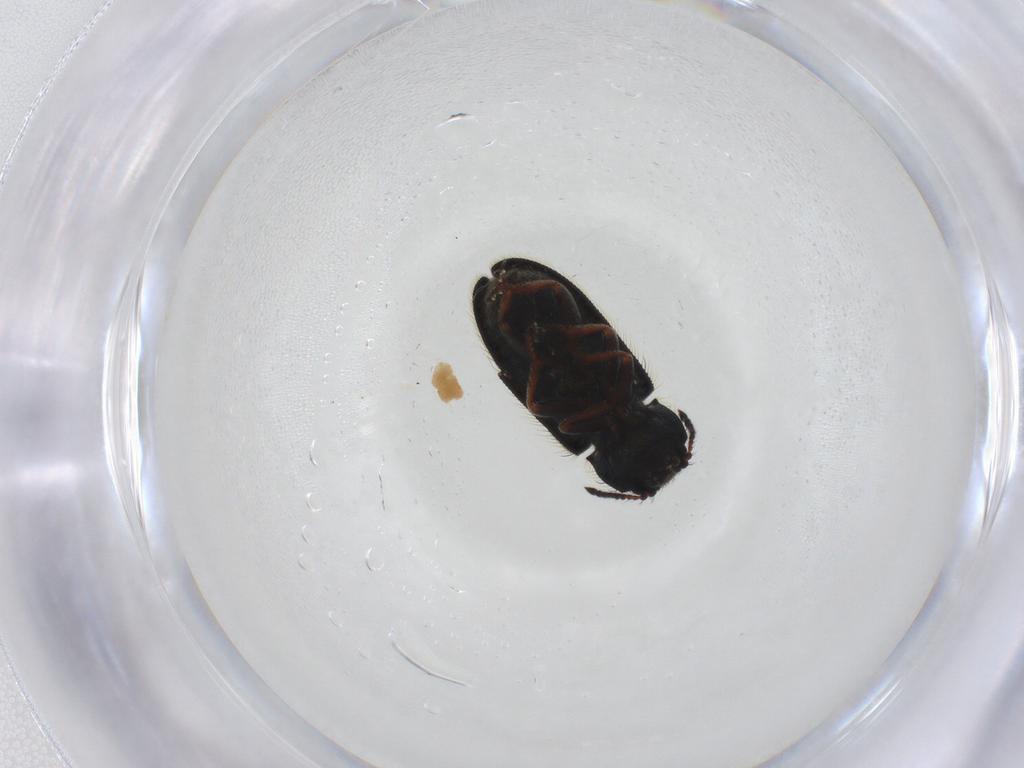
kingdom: Animalia
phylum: Arthropoda
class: Insecta
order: Coleoptera
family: Melyridae
